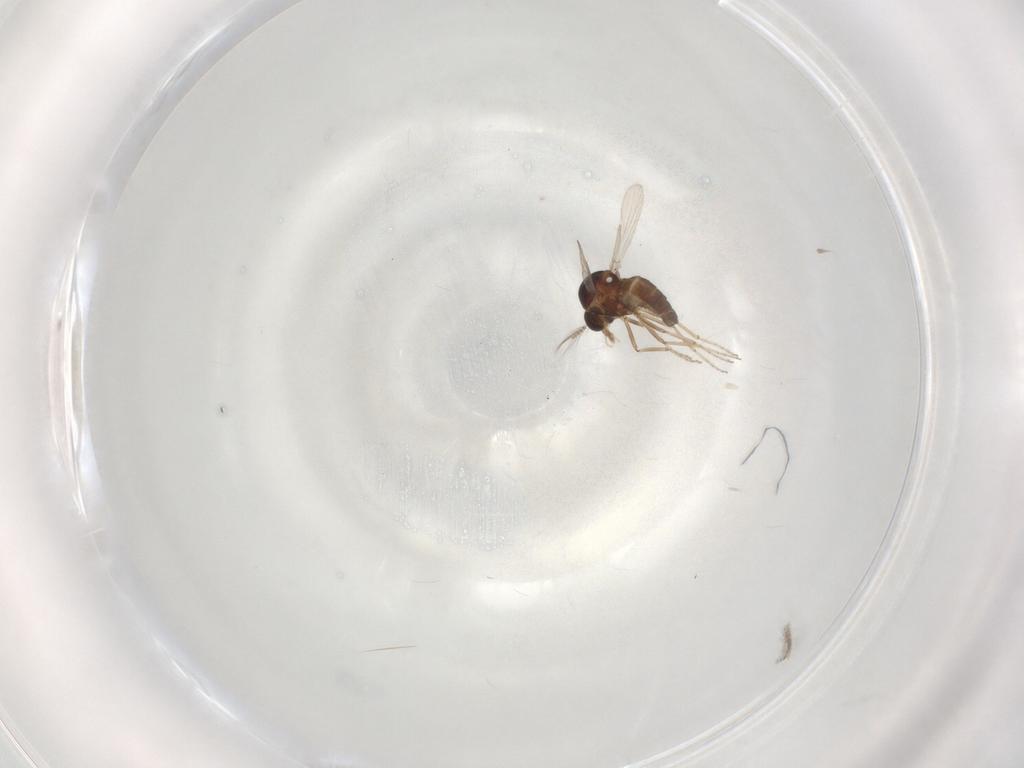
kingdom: Animalia
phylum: Arthropoda
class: Insecta
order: Diptera
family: Ceratopogonidae
